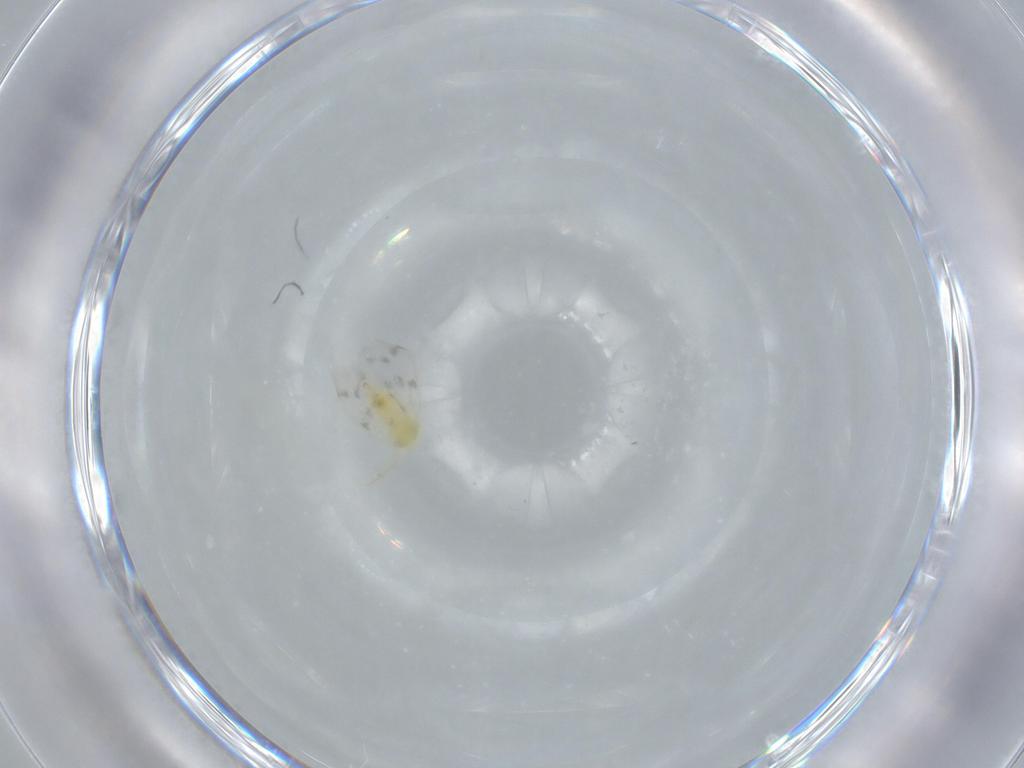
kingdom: Animalia
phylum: Arthropoda
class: Insecta
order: Hemiptera
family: Aleyrodidae
